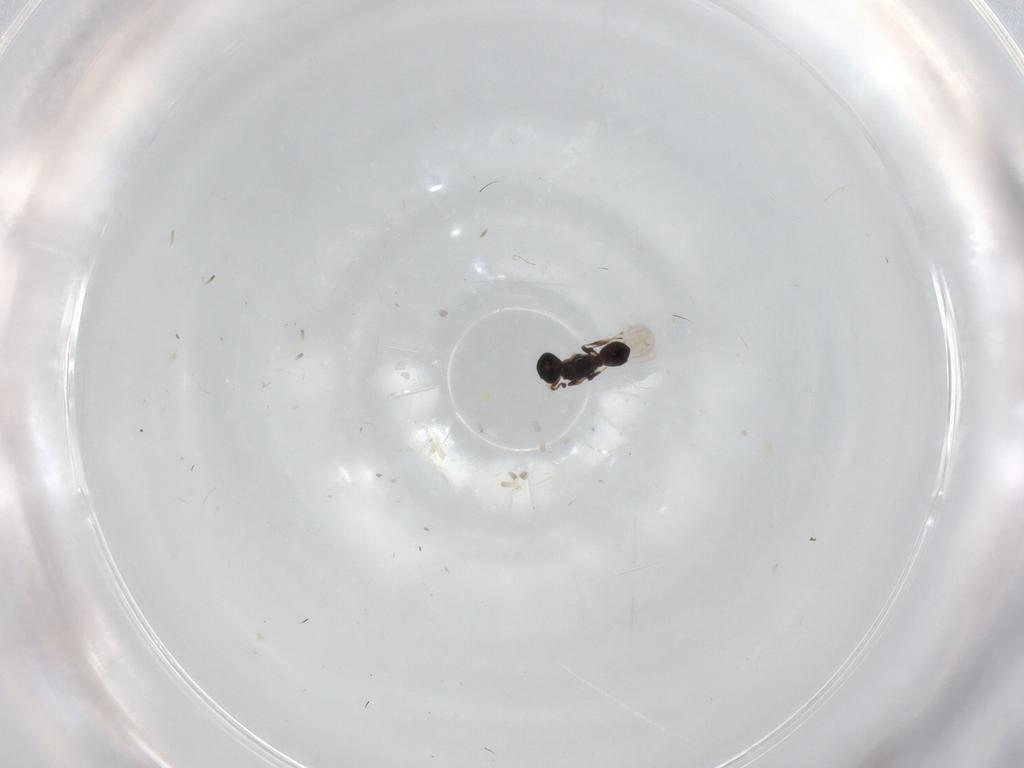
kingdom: Animalia
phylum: Arthropoda
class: Insecta
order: Hymenoptera
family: Platygastridae
